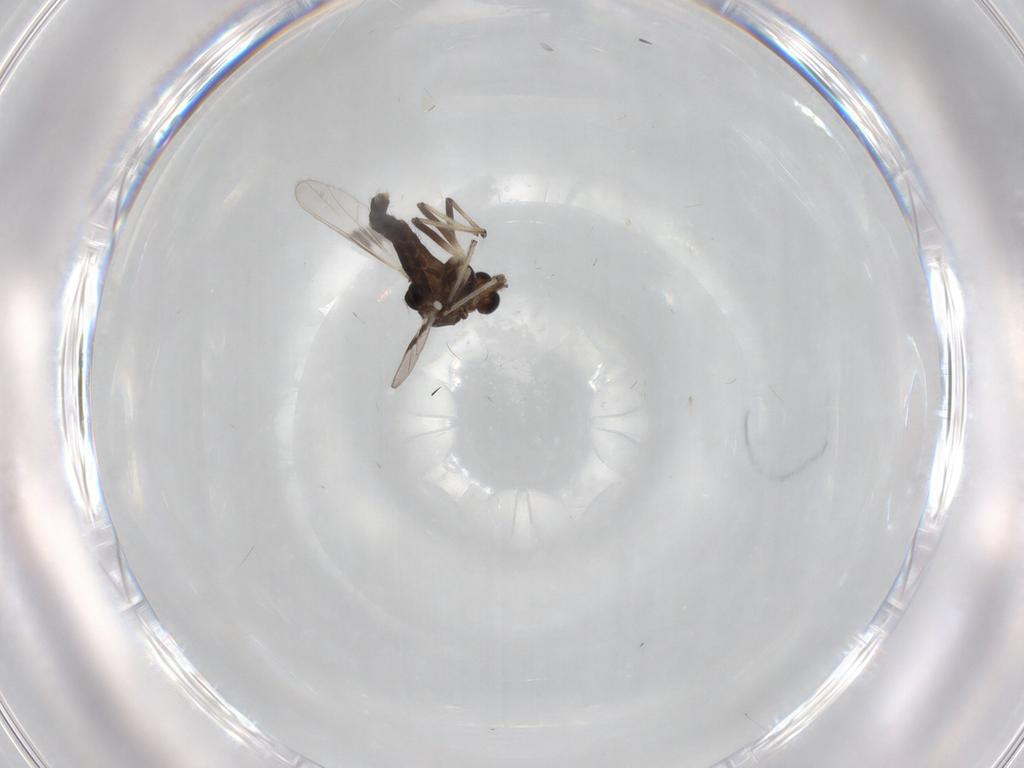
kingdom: Animalia
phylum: Arthropoda
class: Insecta
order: Diptera
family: Chironomidae
